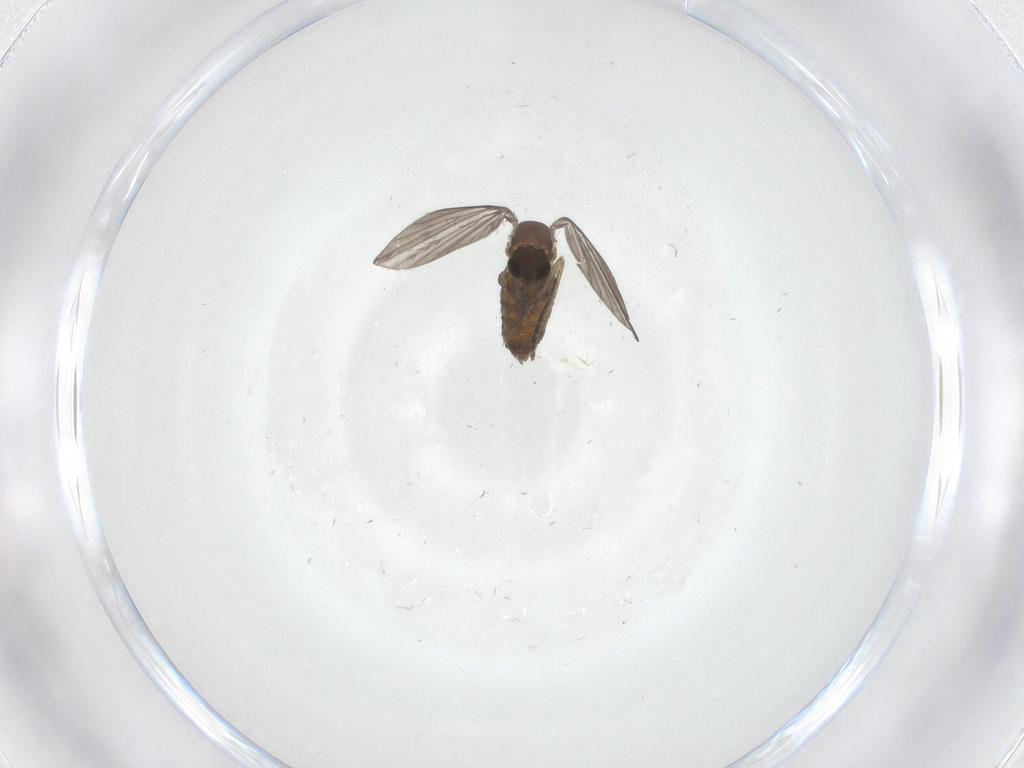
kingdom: Animalia
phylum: Arthropoda
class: Insecta
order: Diptera
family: Psychodidae
